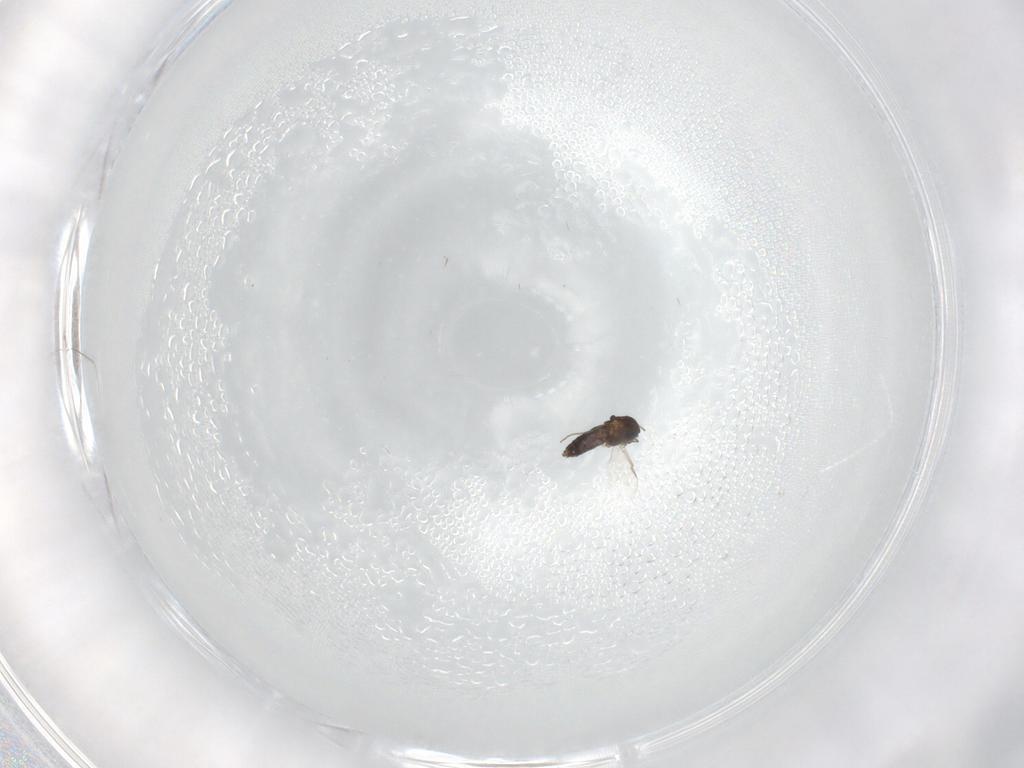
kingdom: Animalia
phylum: Arthropoda
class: Insecta
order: Diptera
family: Chironomidae
